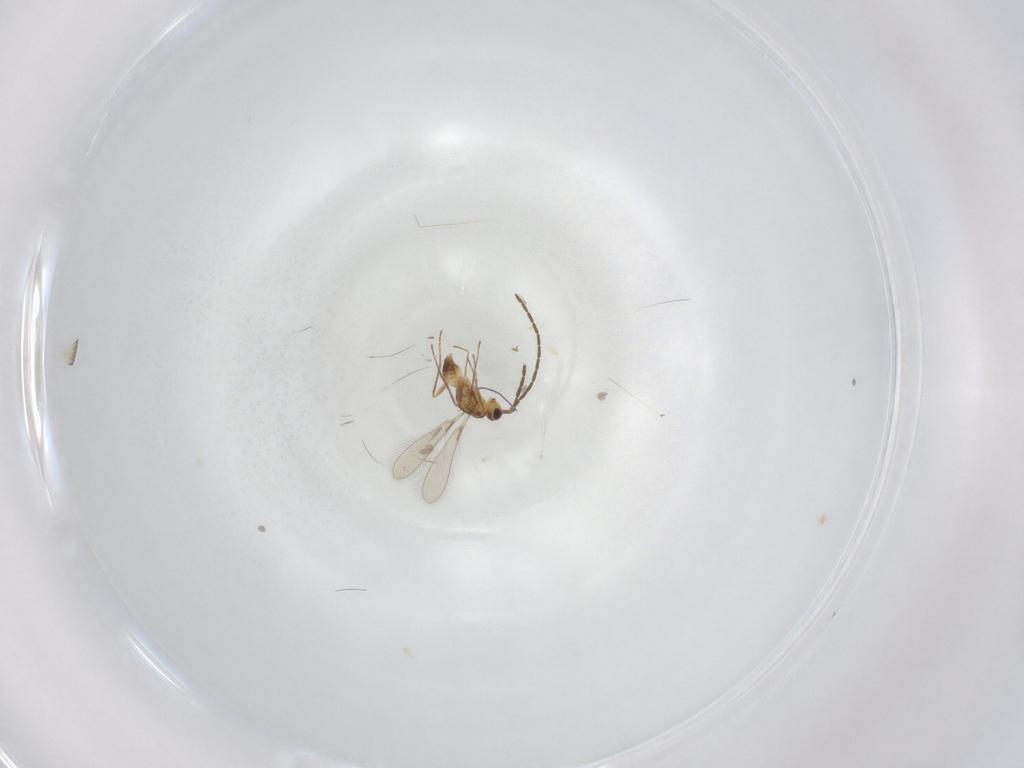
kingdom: Animalia
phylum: Arthropoda
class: Insecta
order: Hymenoptera
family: Mymaridae
